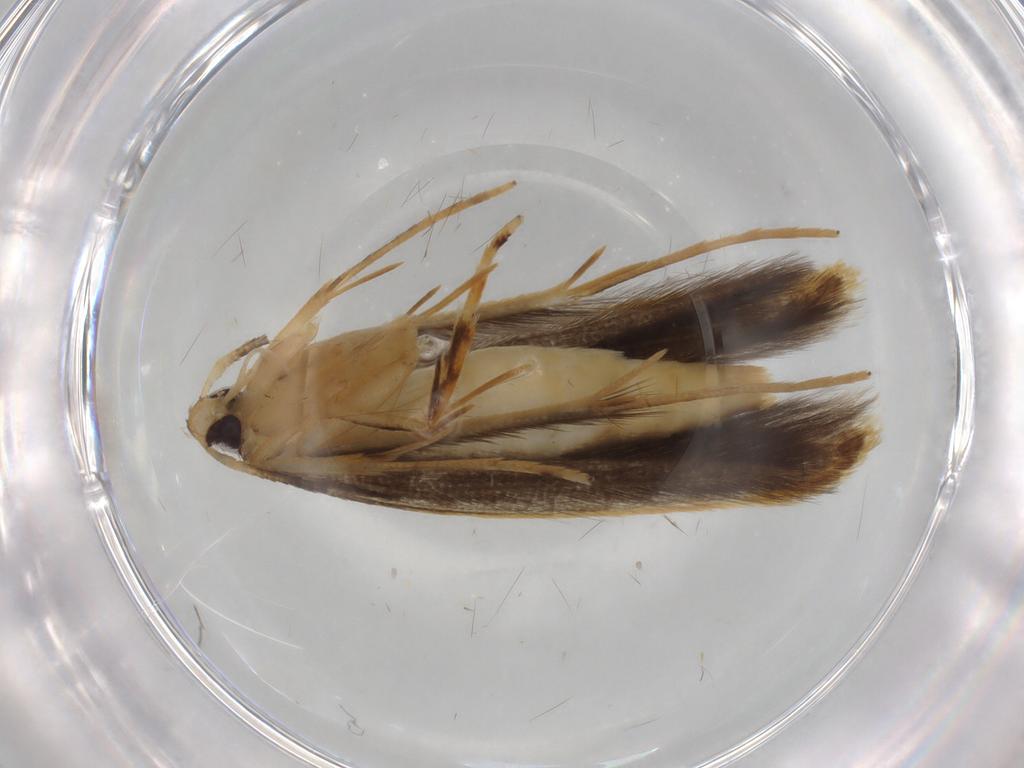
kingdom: Animalia
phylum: Arthropoda
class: Insecta
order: Lepidoptera
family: Pterolonchidae
